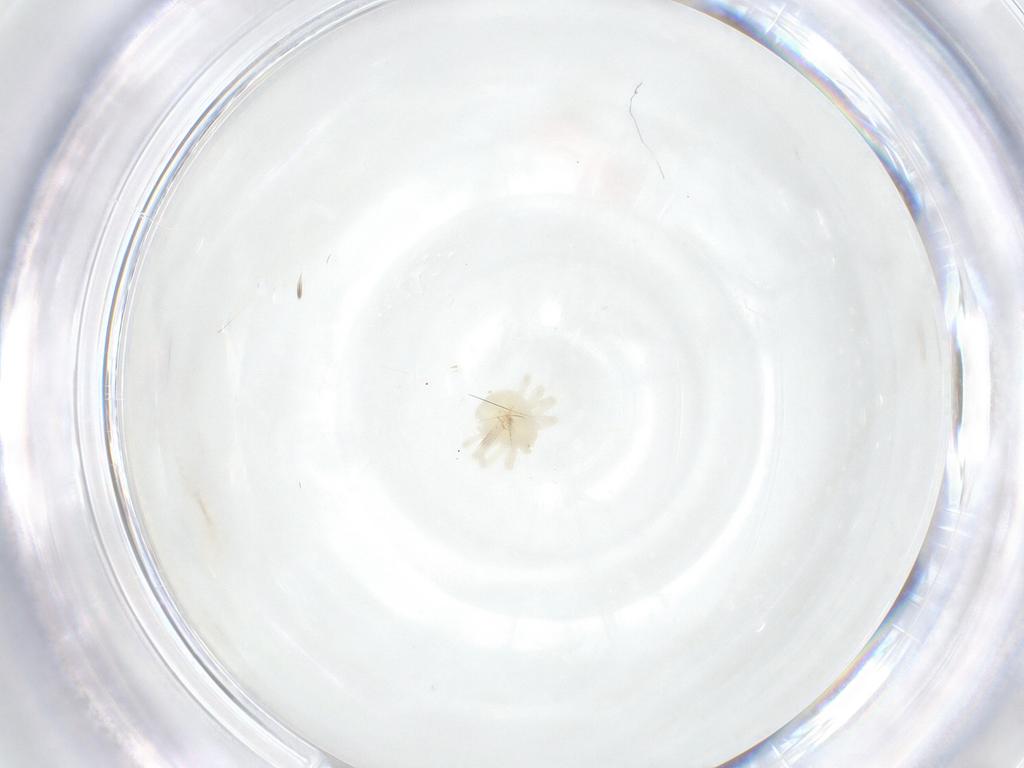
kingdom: Animalia
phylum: Arthropoda
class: Arachnida
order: Trombidiformes
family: Anystidae
